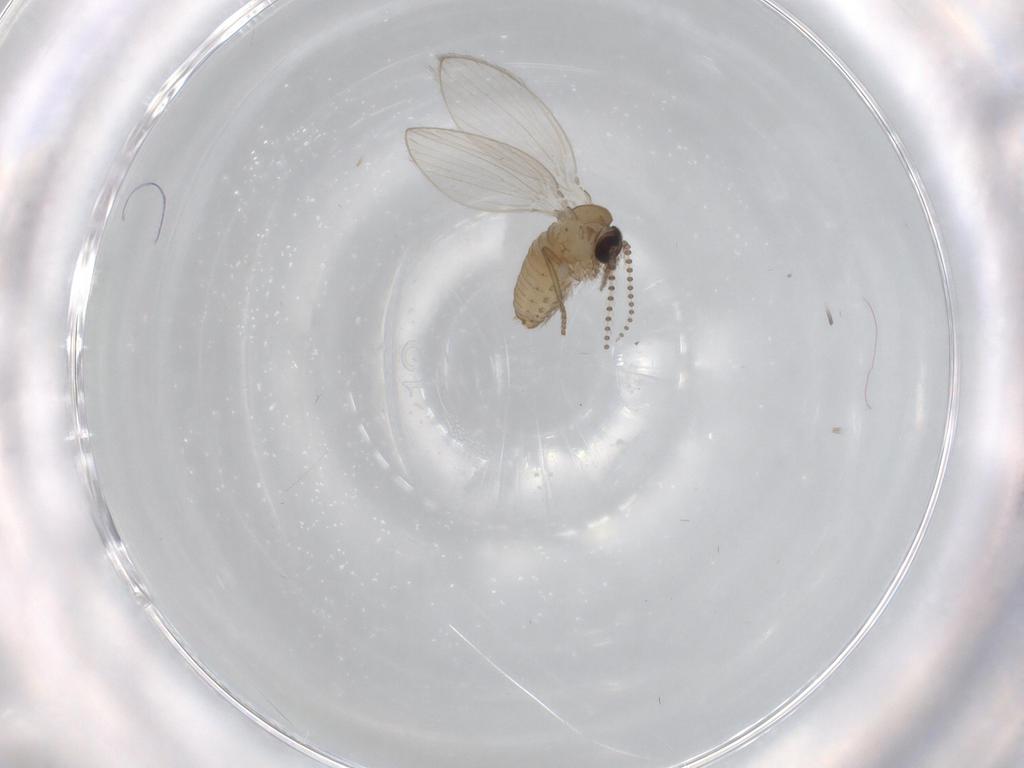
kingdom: Animalia
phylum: Arthropoda
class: Insecta
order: Diptera
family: Psychodidae
